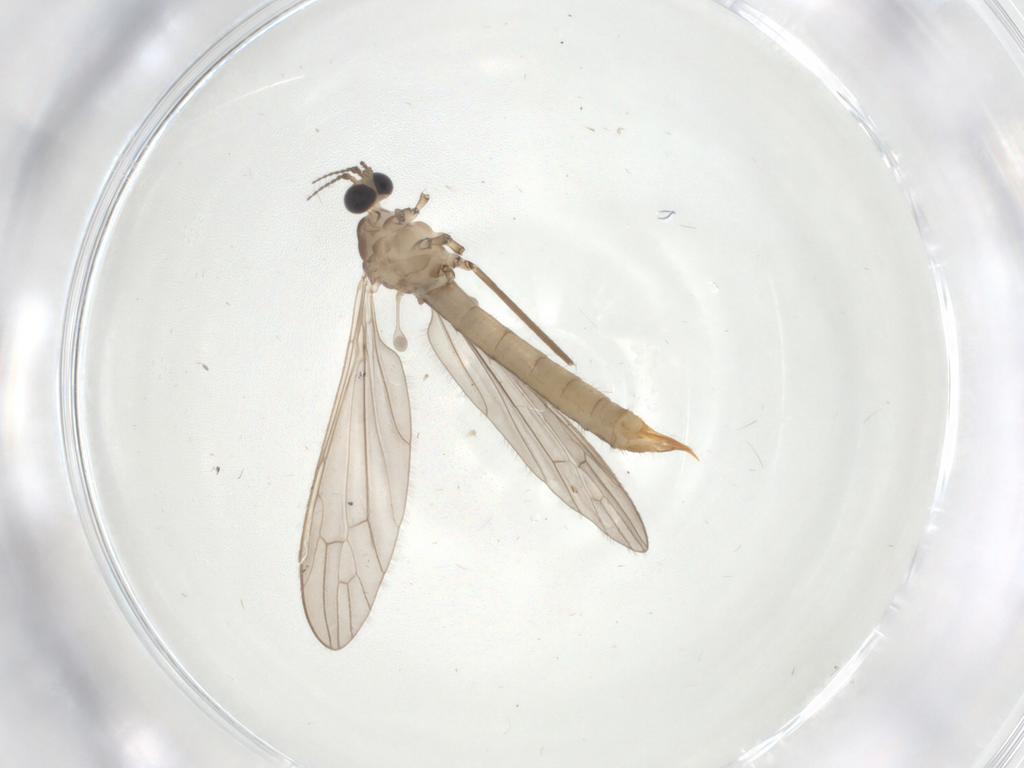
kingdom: Animalia
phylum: Arthropoda
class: Insecta
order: Diptera
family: Limoniidae
